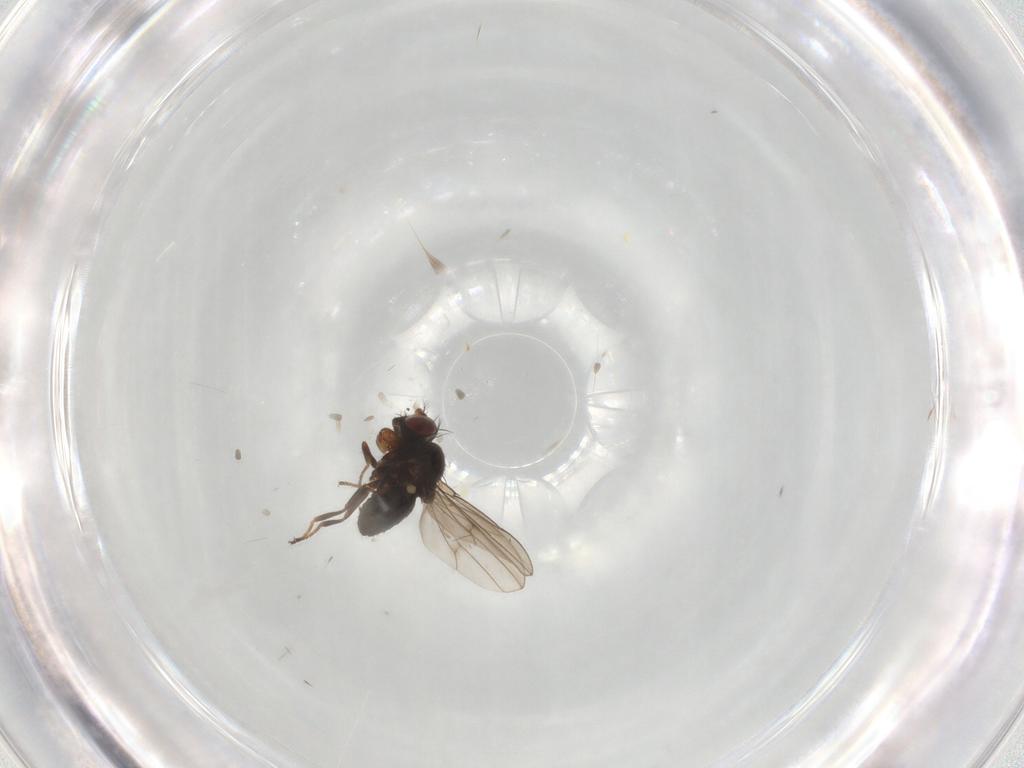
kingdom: Animalia
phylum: Arthropoda
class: Insecta
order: Diptera
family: Ephydridae
